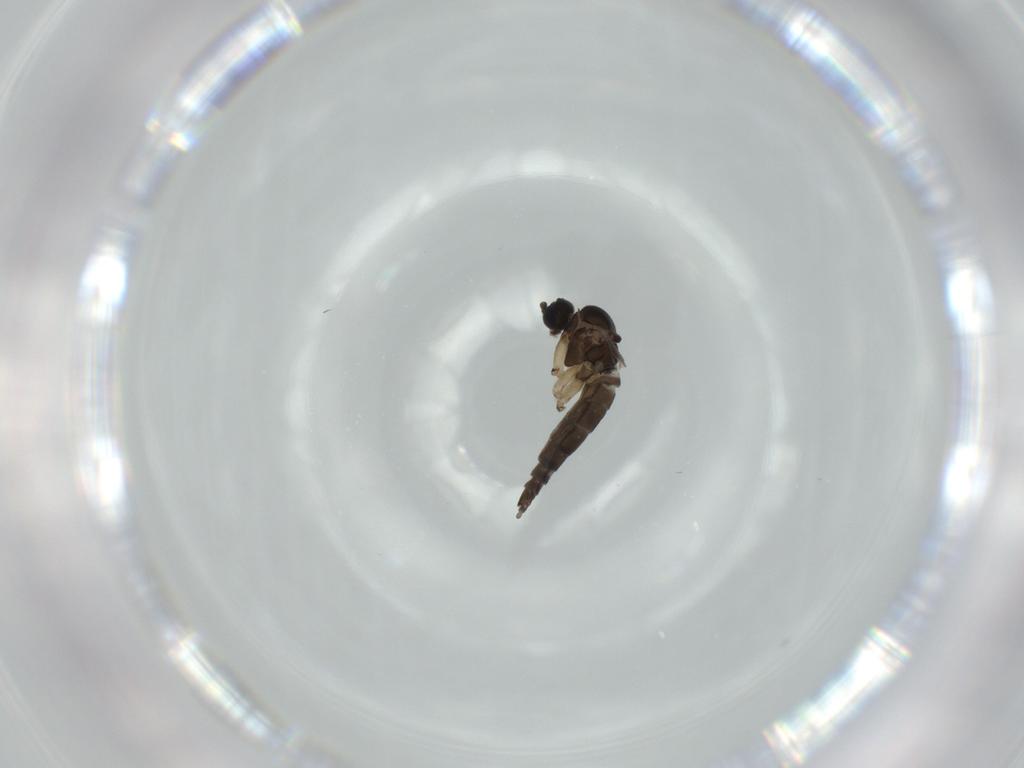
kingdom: Animalia
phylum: Arthropoda
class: Insecta
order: Diptera
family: Sciaridae
